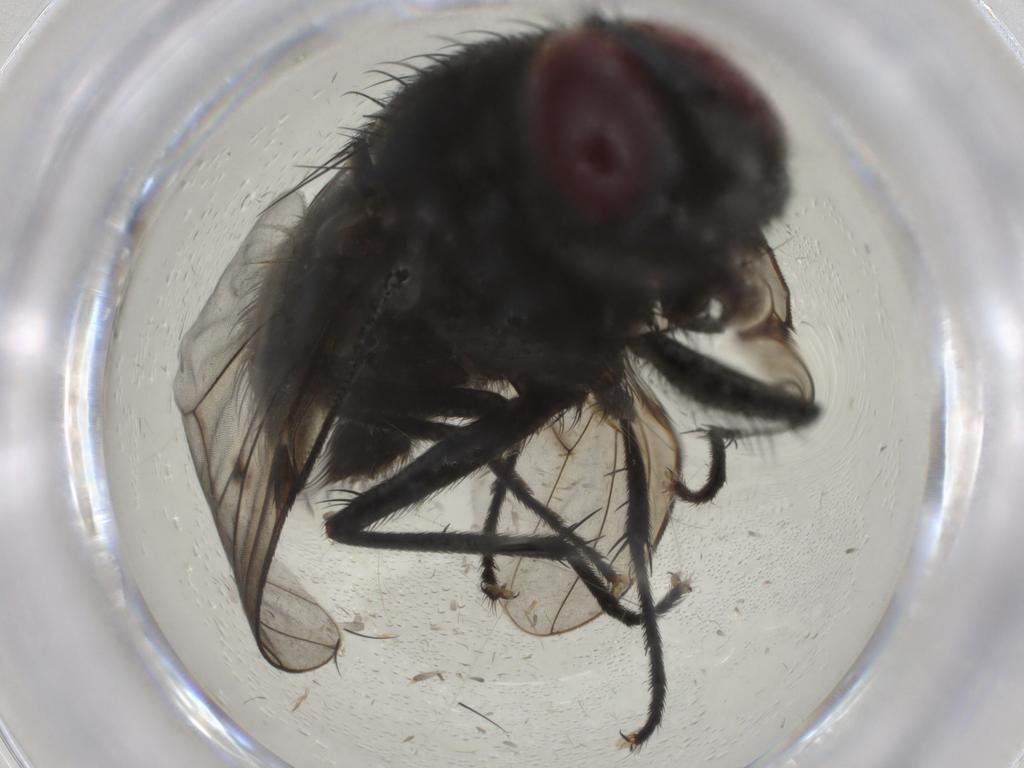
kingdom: Animalia
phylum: Arthropoda
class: Insecta
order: Diptera
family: Muscidae
